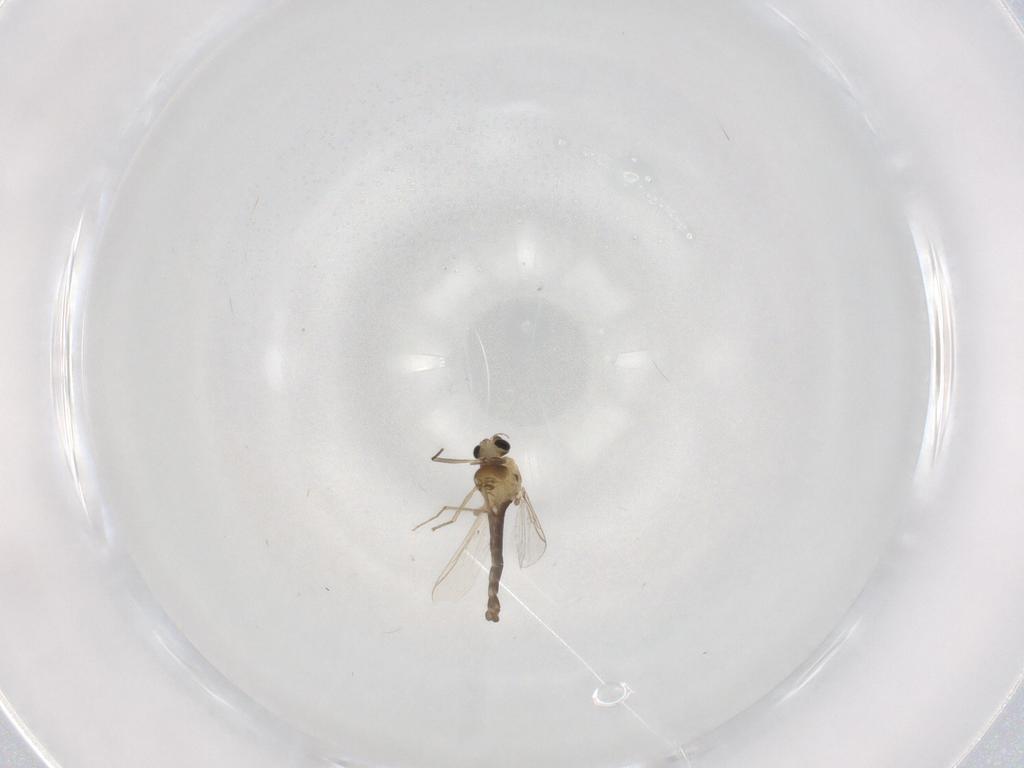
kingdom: Animalia
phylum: Arthropoda
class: Insecta
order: Diptera
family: Chironomidae
